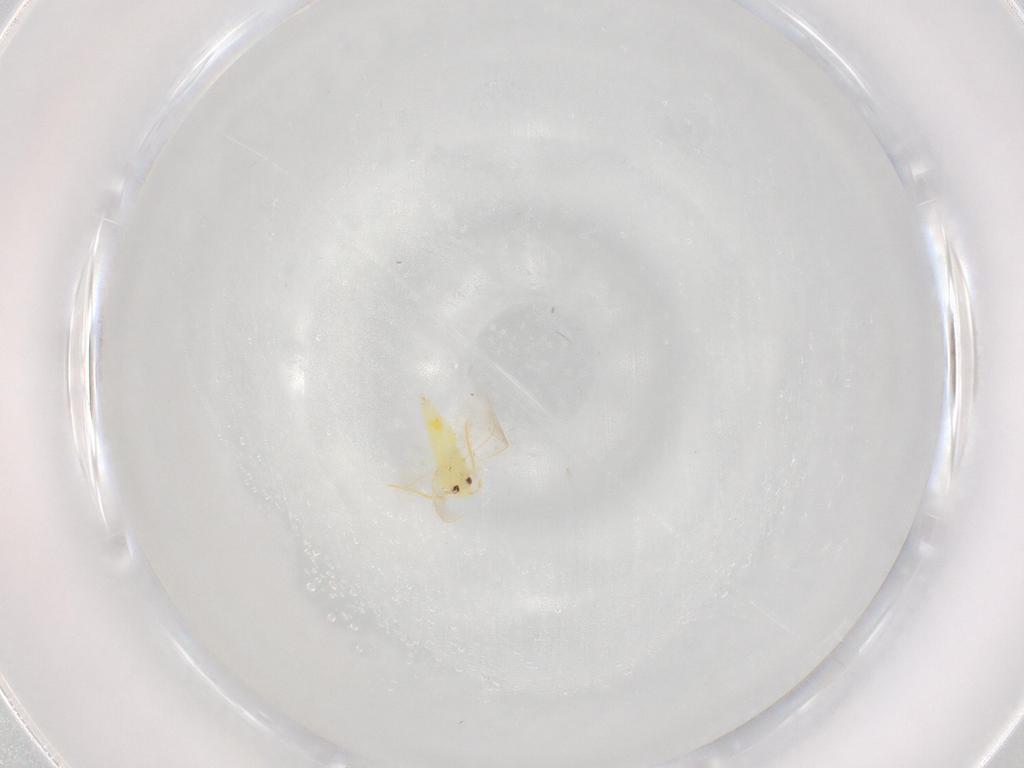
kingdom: Animalia
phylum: Arthropoda
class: Insecta
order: Hemiptera
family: Aleyrodidae
